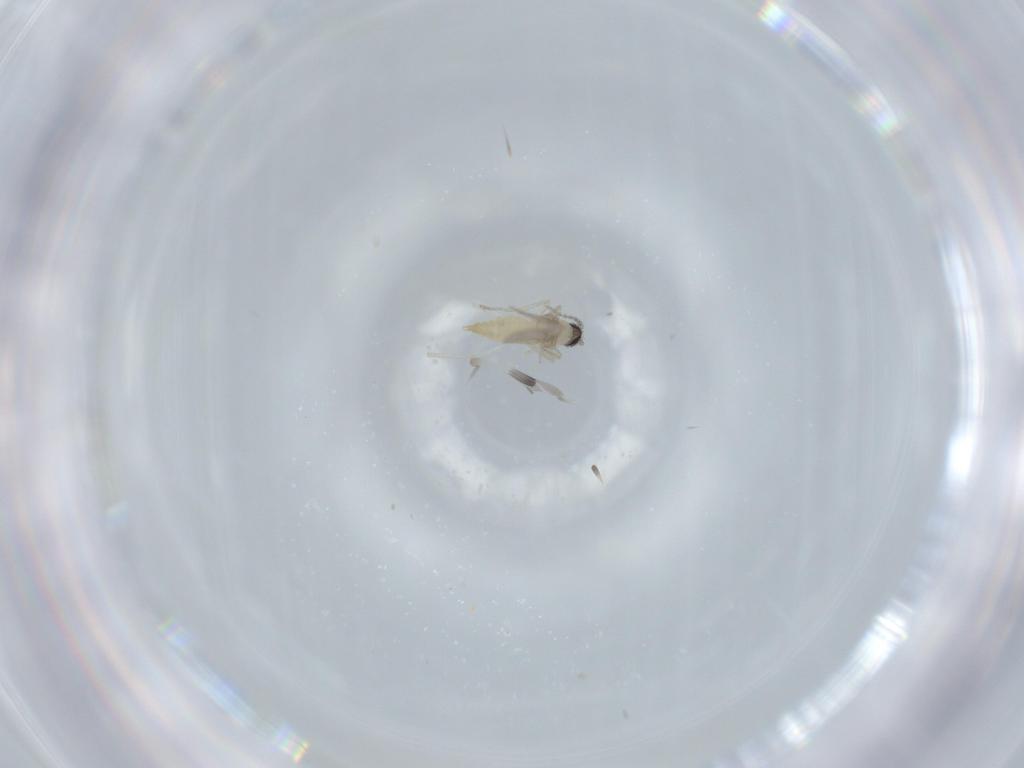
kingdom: Animalia
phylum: Arthropoda
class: Insecta
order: Diptera
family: Cecidomyiidae
